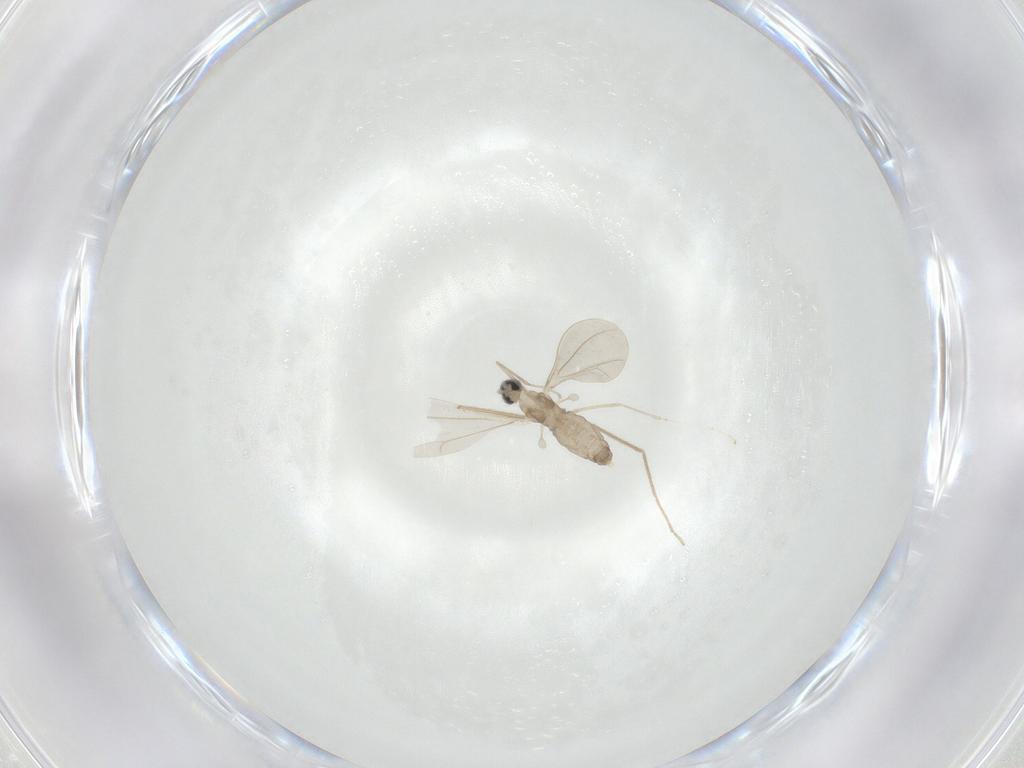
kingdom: Animalia
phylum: Arthropoda
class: Insecta
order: Diptera
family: Cecidomyiidae
